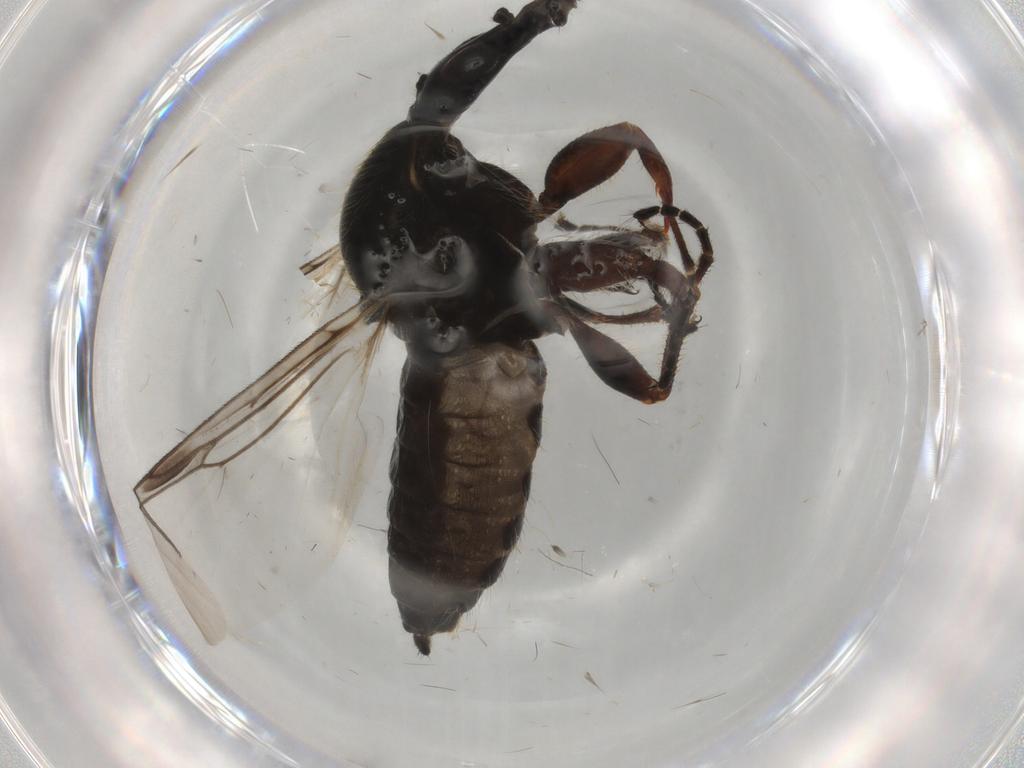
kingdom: Animalia
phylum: Arthropoda
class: Insecta
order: Diptera
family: Bibionidae
